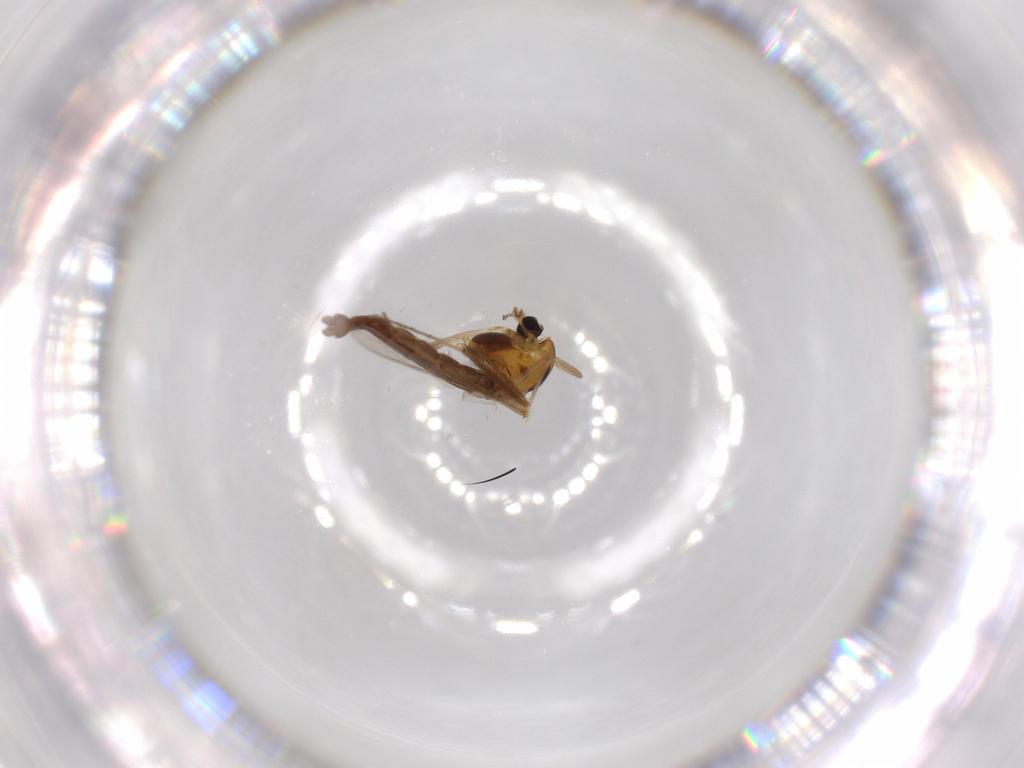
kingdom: Animalia
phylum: Arthropoda
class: Insecta
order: Diptera
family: Chironomidae
